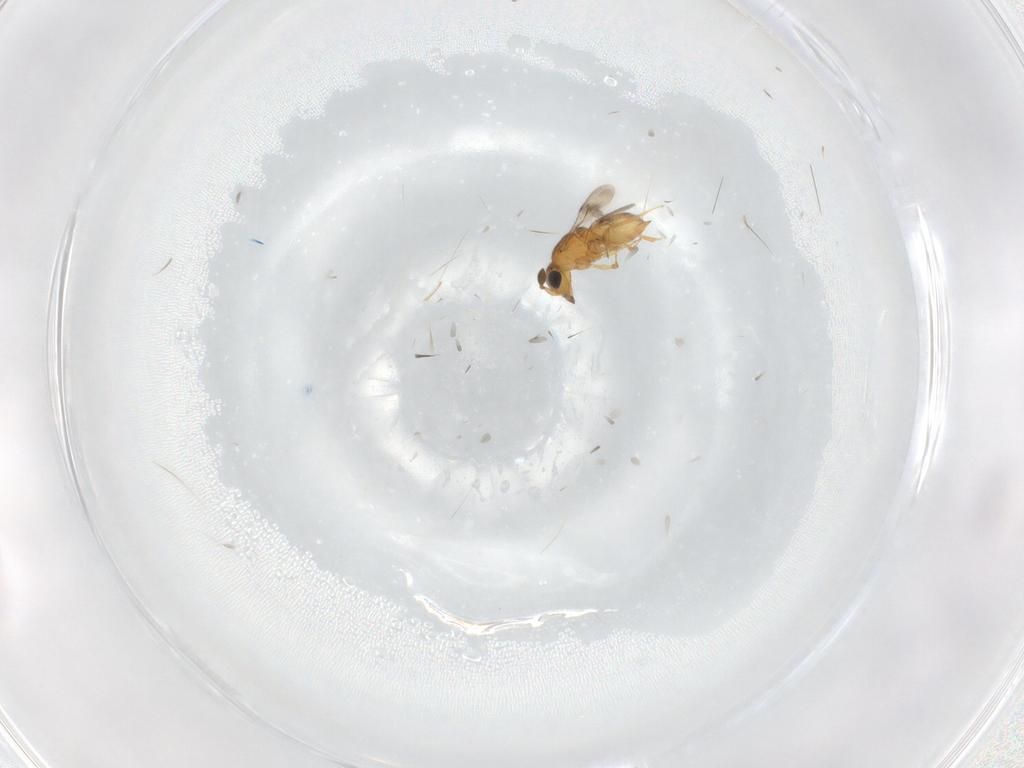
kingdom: Animalia
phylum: Arthropoda
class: Insecta
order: Hymenoptera
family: Scelionidae
